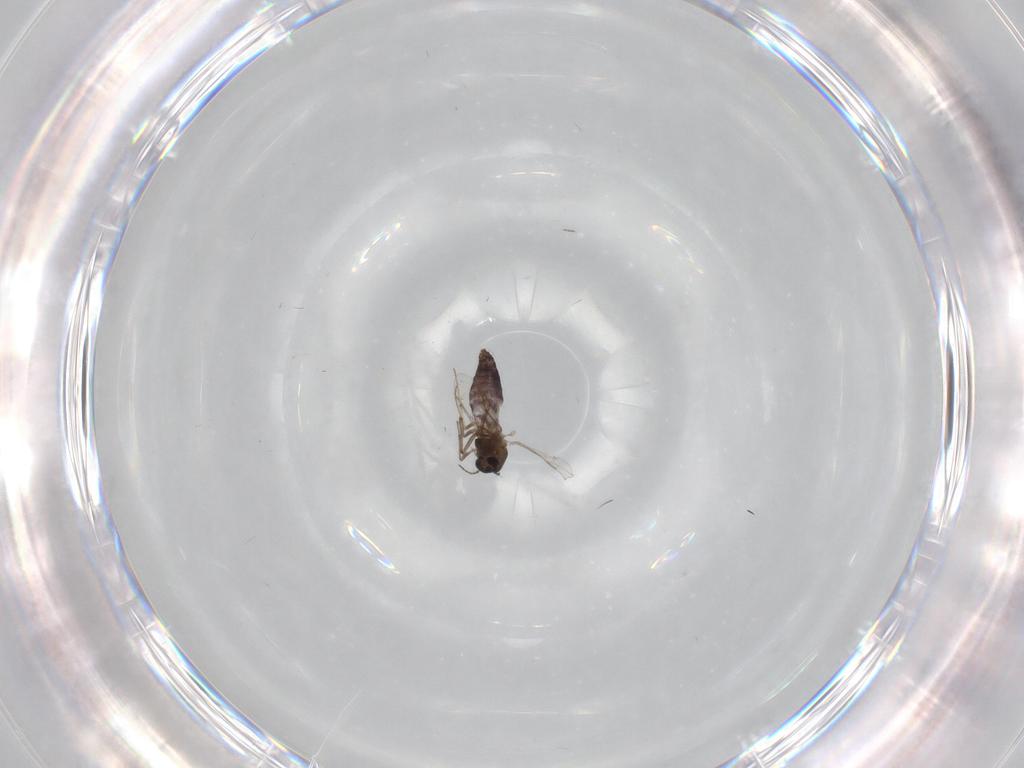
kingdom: Animalia
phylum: Arthropoda
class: Insecta
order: Diptera
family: Chironomidae
